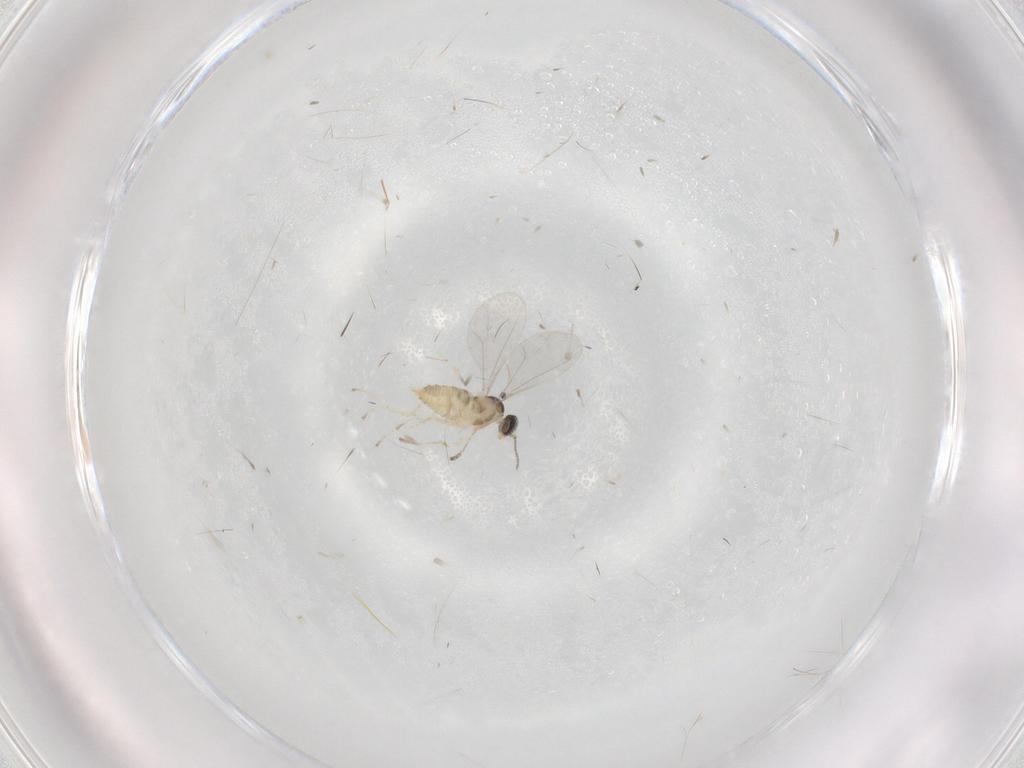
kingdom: Animalia
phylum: Arthropoda
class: Insecta
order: Diptera
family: Cecidomyiidae
